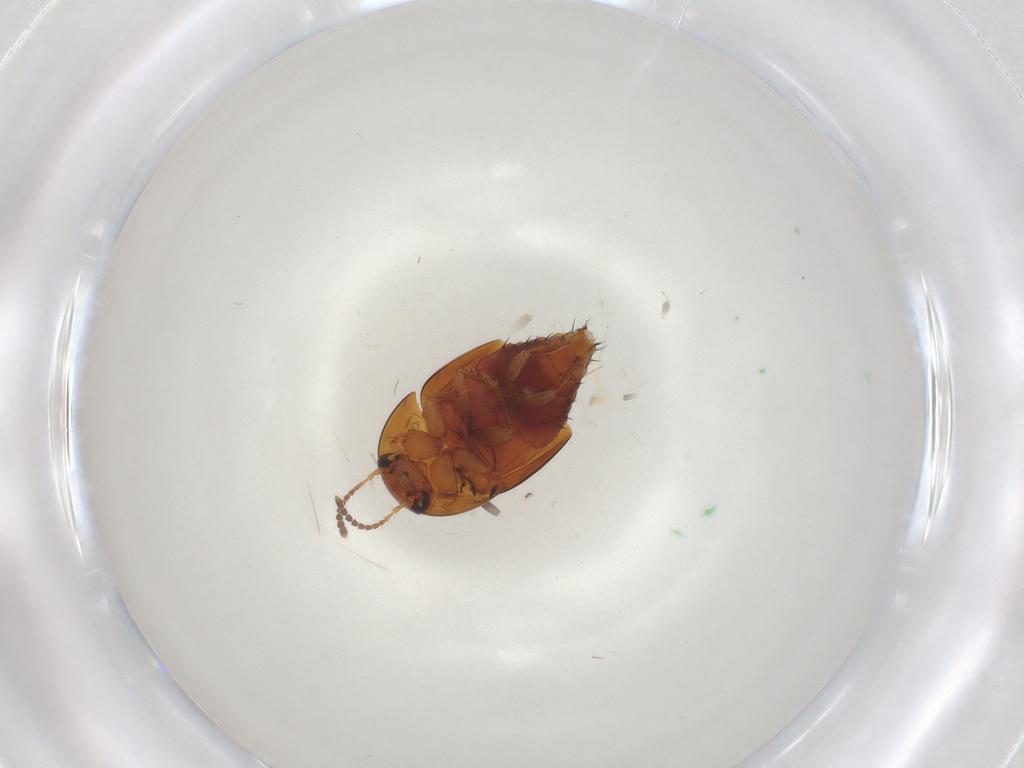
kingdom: Animalia
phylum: Arthropoda
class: Insecta
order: Coleoptera
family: Staphylinidae
